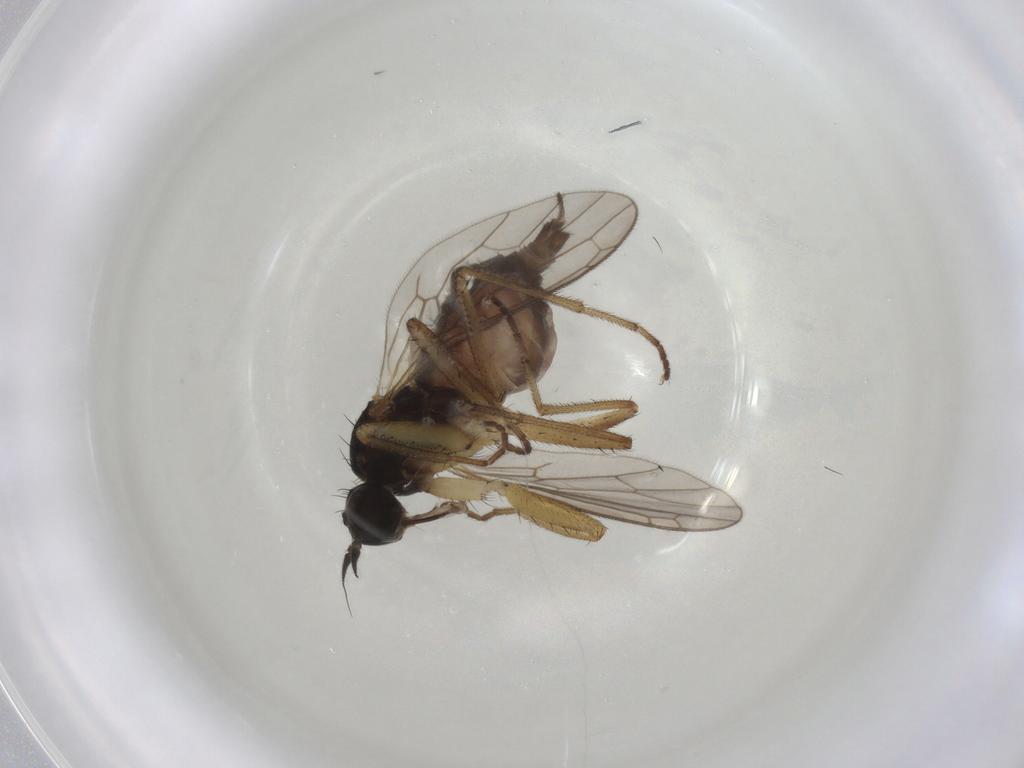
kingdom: Animalia
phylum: Arthropoda
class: Insecta
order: Diptera
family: Empididae
